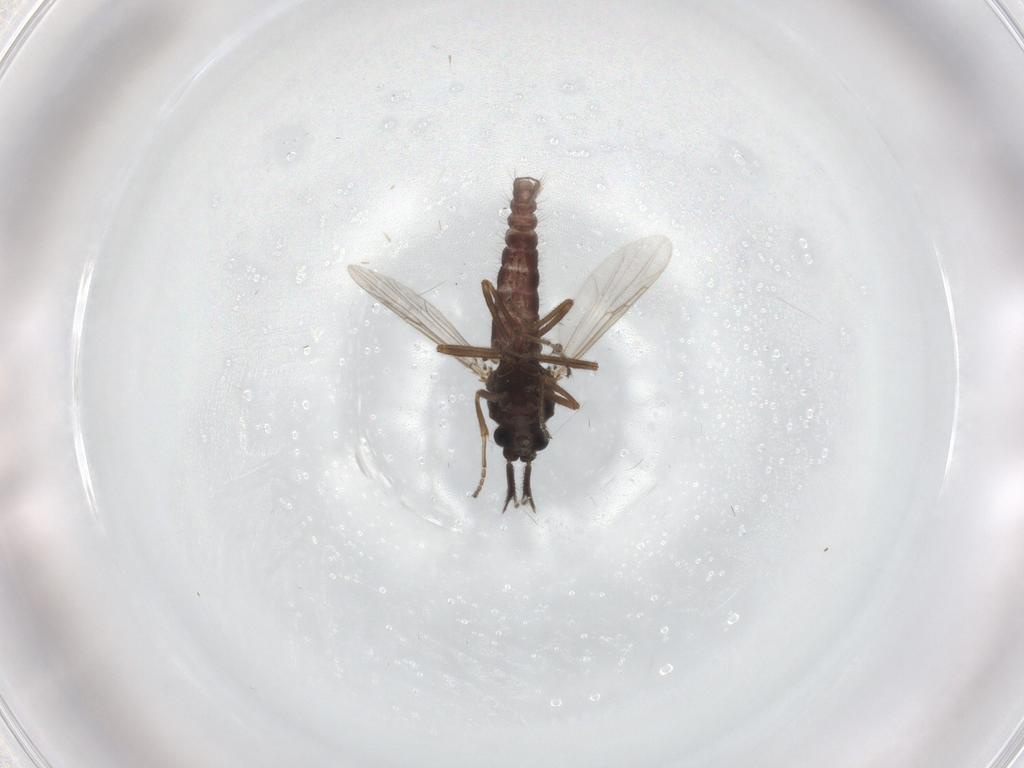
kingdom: Animalia
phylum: Arthropoda
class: Insecta
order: Diptera
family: Ceratopogonidae
